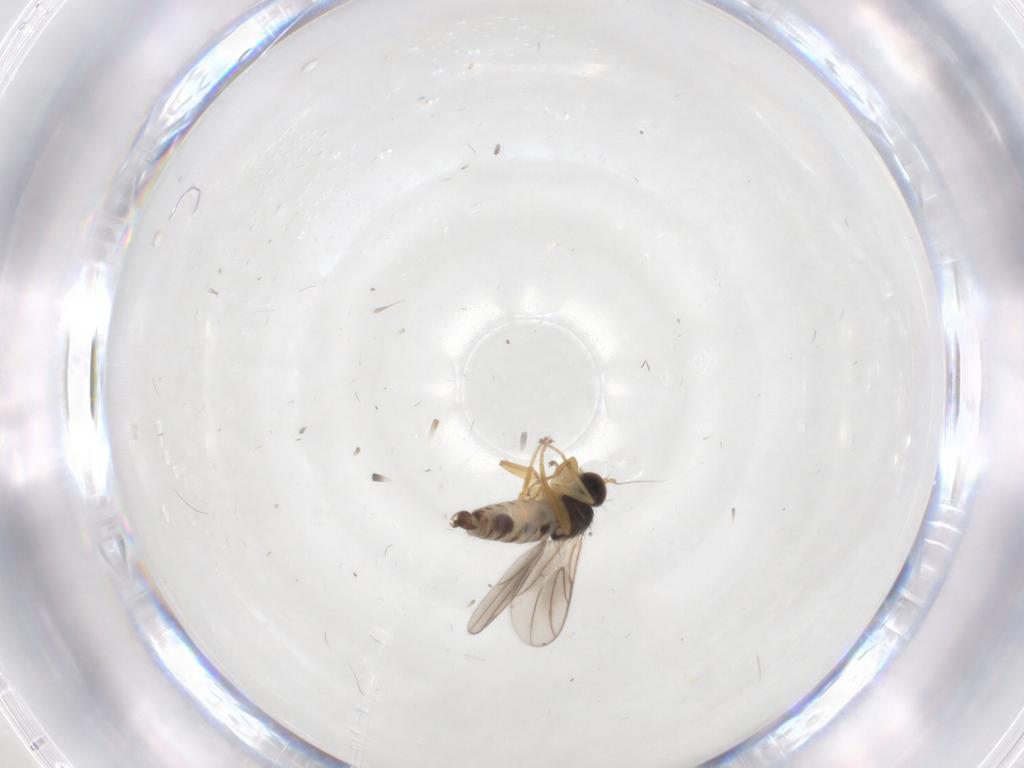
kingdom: Animalia
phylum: Arthropoda
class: Insecta
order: Diptera
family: Hybotidae
